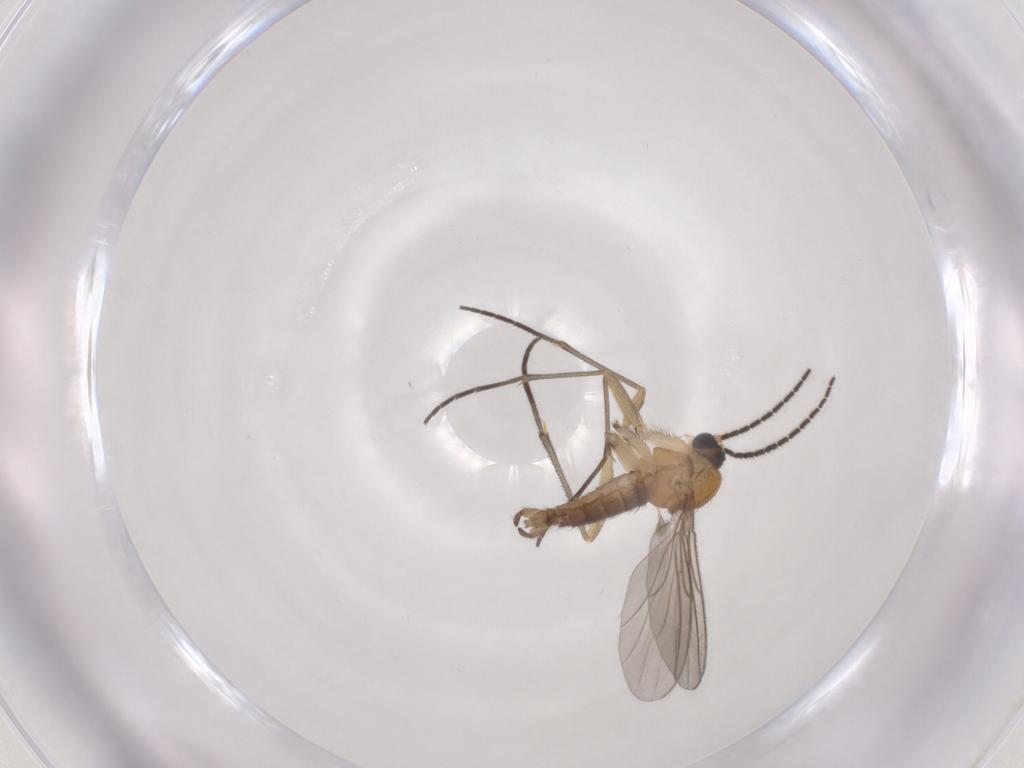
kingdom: Animalia
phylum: Arthropoda
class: Insecta
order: Diptera
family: Sciaridae
